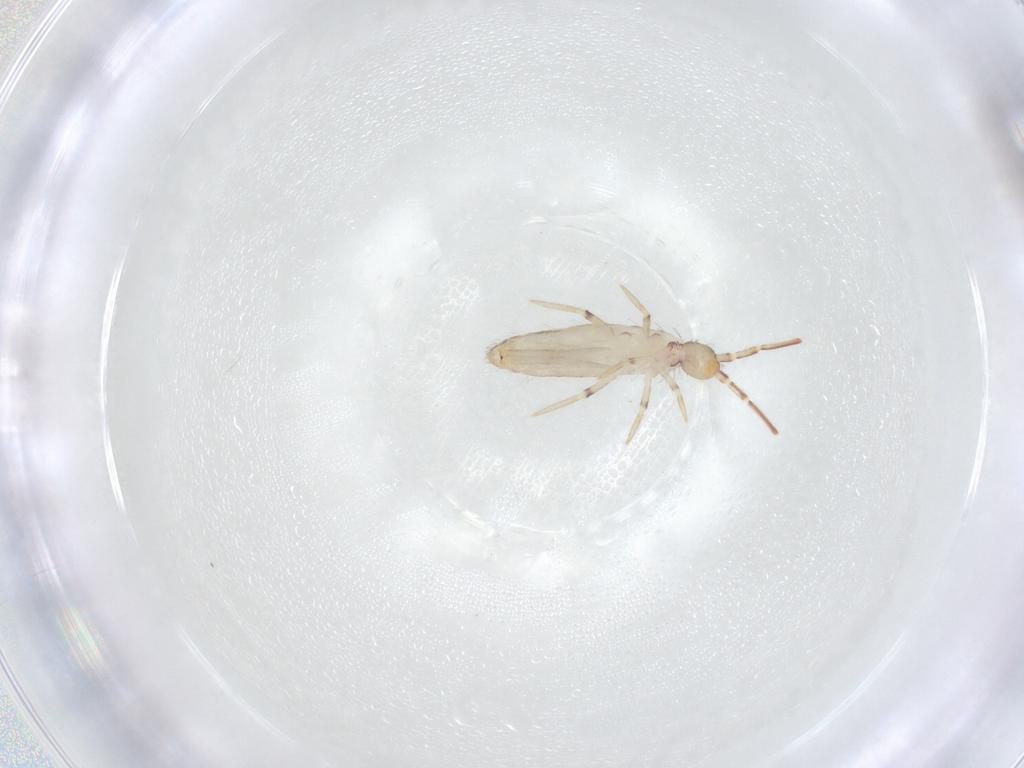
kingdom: Animalia
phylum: Arthropoda
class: Collembola
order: Entomobryomorpha
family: Entomobryidae
